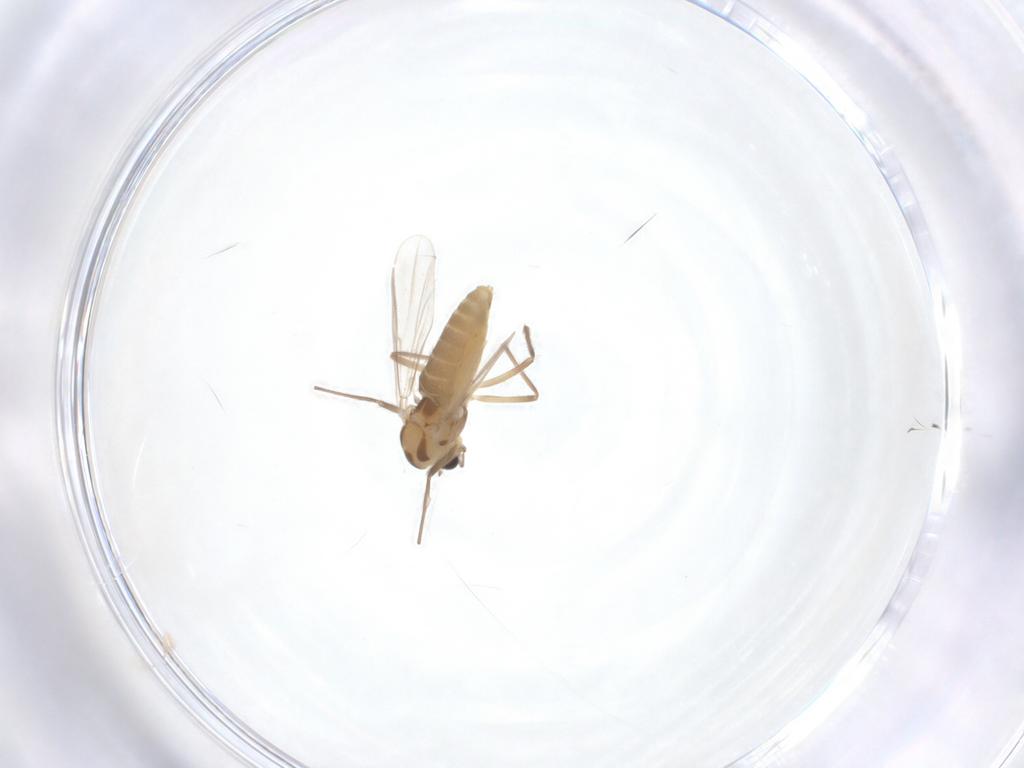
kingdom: Animalia
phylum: Arthropoda
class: Insecta
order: Diptera
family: Chironomidae
